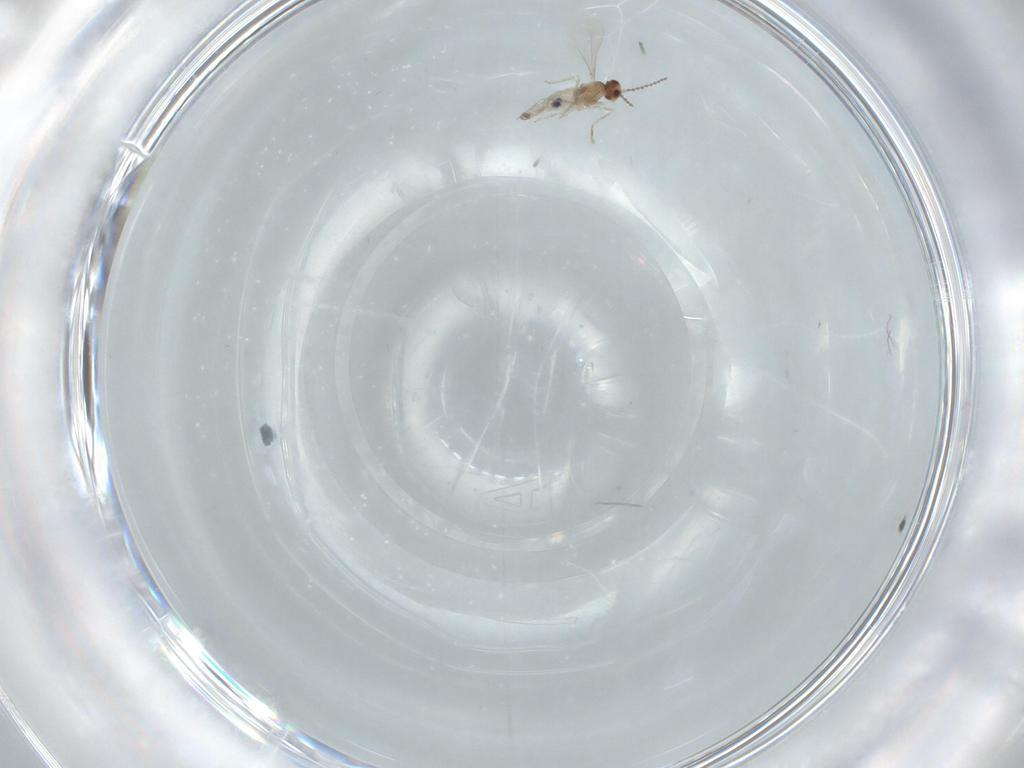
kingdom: Animalia
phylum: Arthropoda
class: Insecta
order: Diptera
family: Cecidomyiidae
